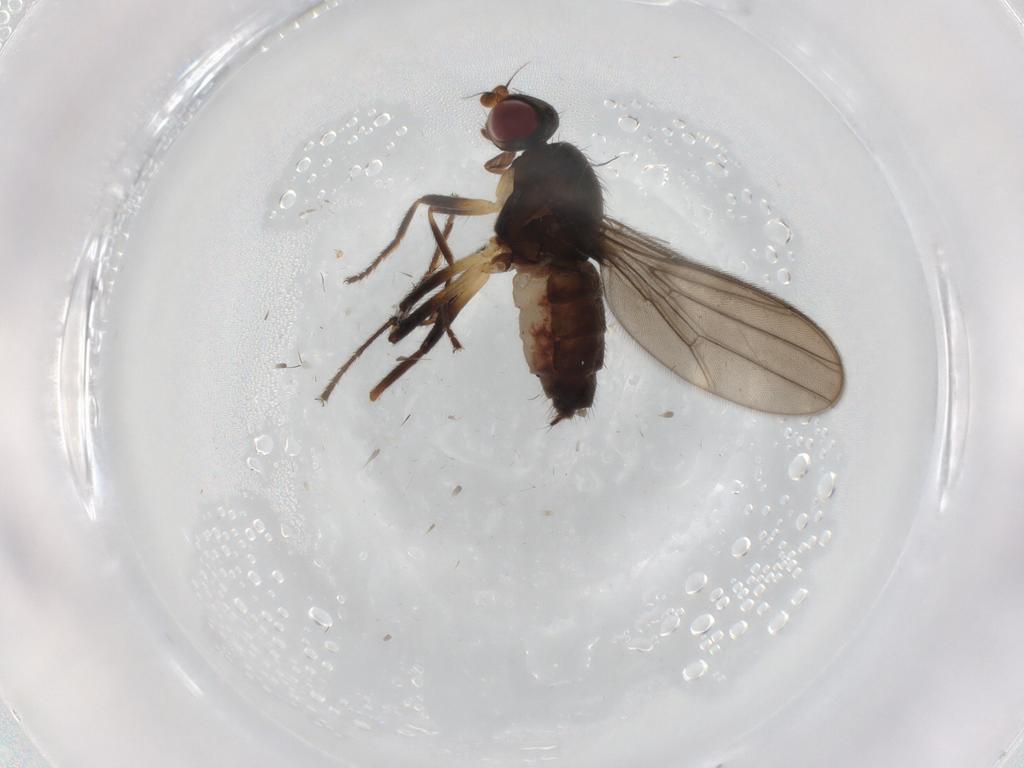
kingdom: Animalia
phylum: Arthropoda
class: Insecta
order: Diptera
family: Chloropidae
